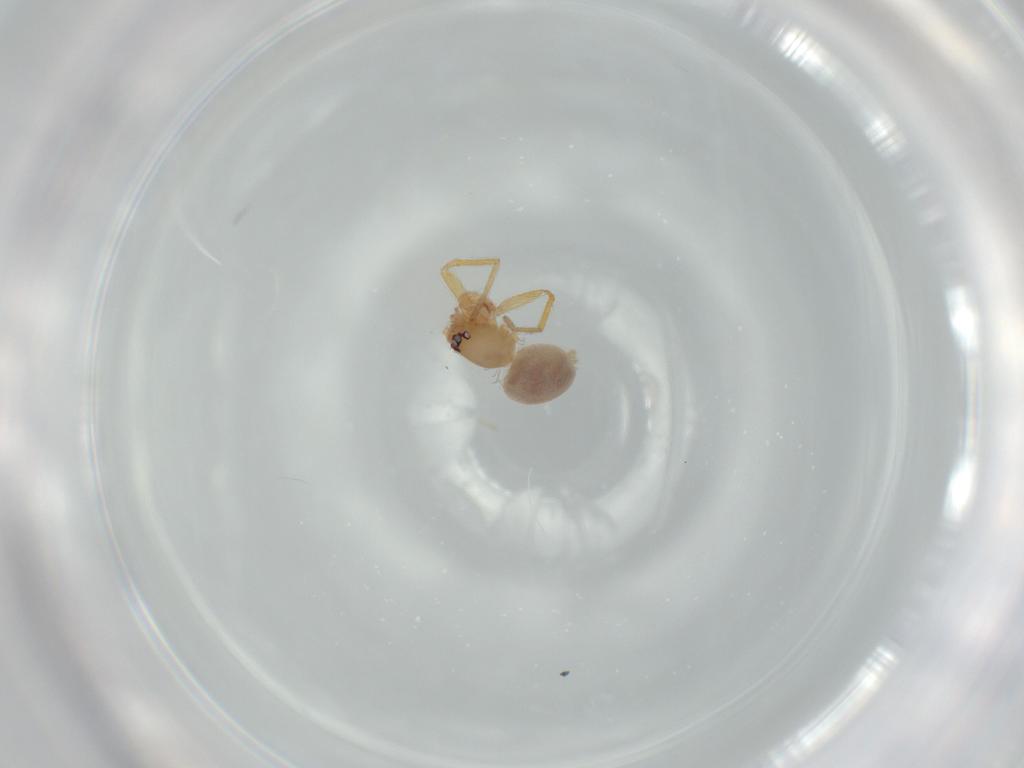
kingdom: Animalia
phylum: Arthropoda
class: Arachnida
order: Araneae
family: Oonopidae
